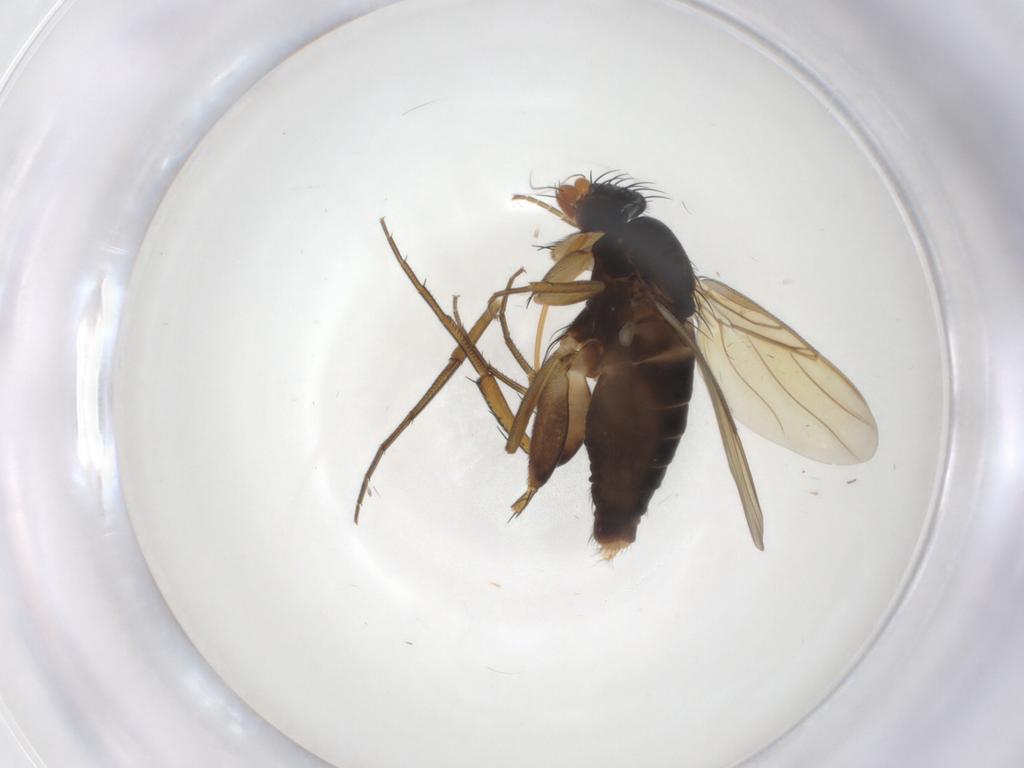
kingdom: Animalia
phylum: Arthropoda
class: Insecta
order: Diptera
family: Phoridae
